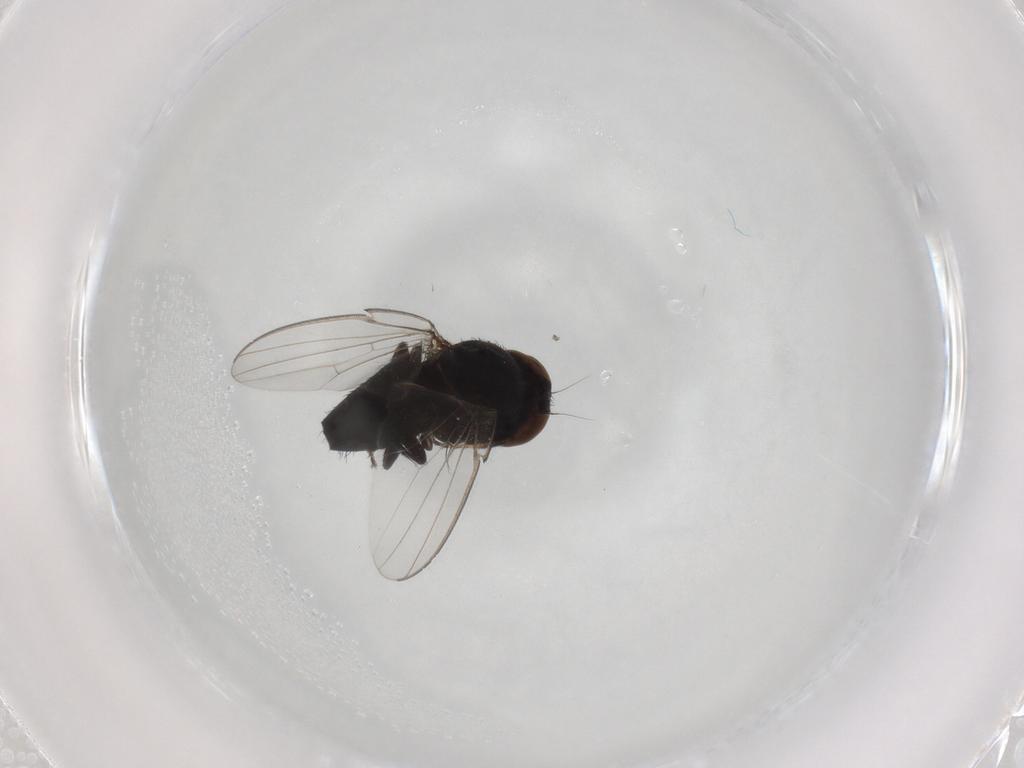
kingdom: Animalia
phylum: Arthropoda
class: Insecta
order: Diptera
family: Milichiidae
